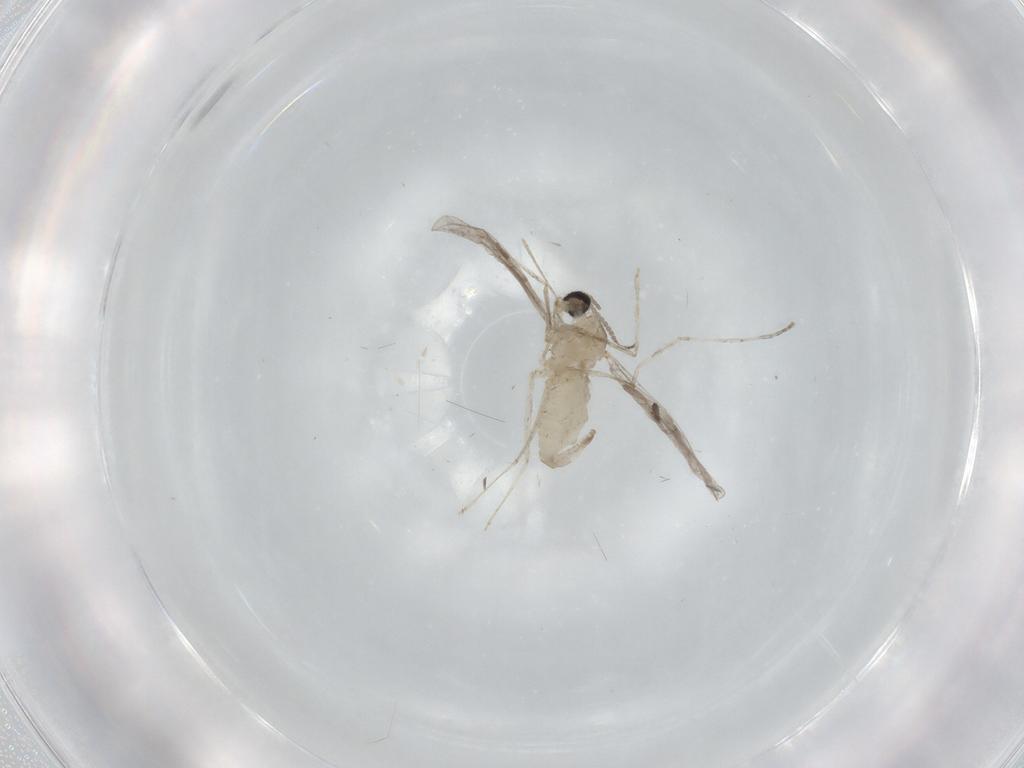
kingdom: Animalia
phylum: Arthropoda
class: Insecta
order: Diptera
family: Cecidomyiidae
